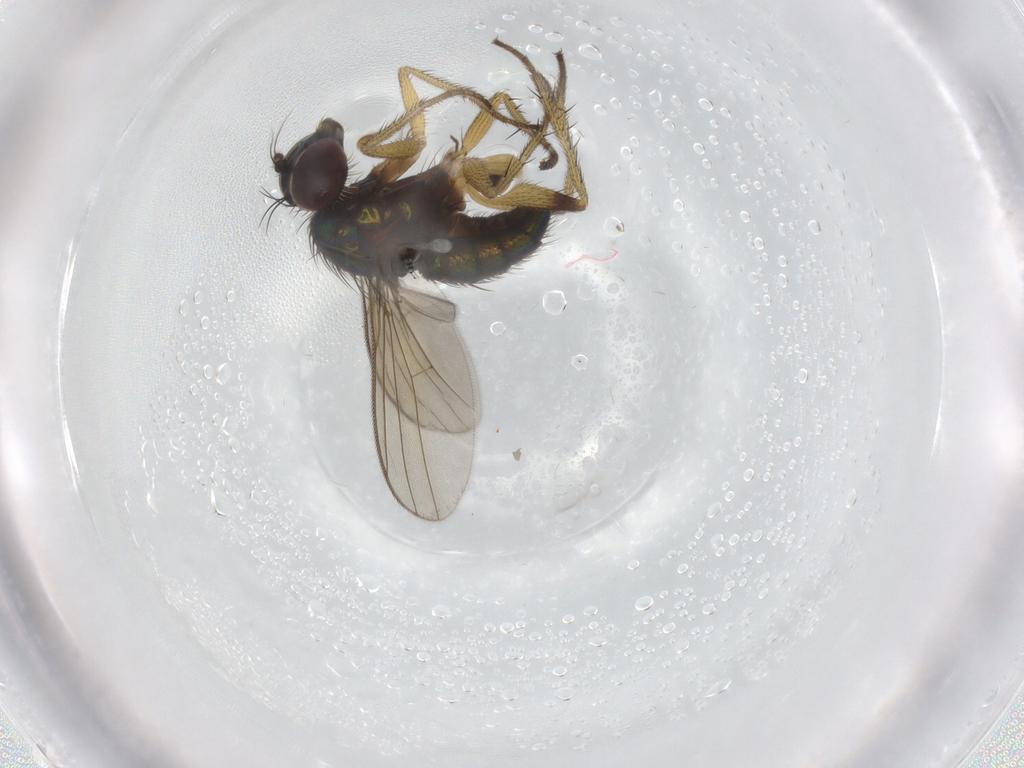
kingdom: Animalia
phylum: Arthropoda
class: Insecta
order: Diptera
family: Dolichopodidae
